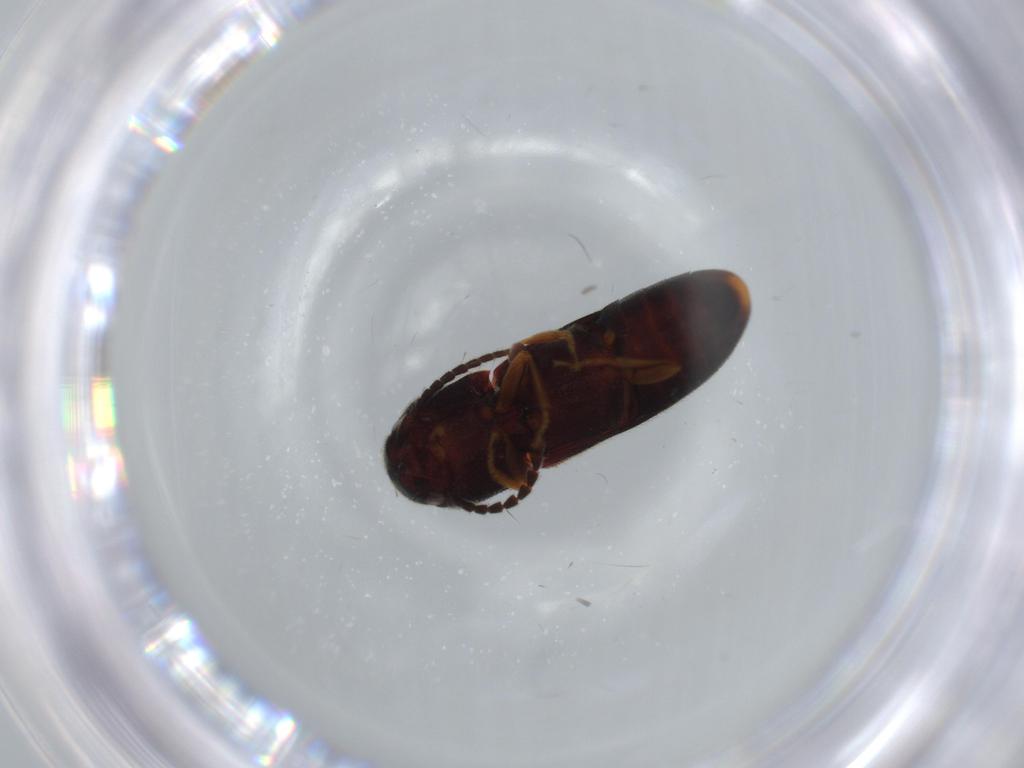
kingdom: Animalia
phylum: Arthropoda
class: Insecta
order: Coleoptera
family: Eucnemidae
